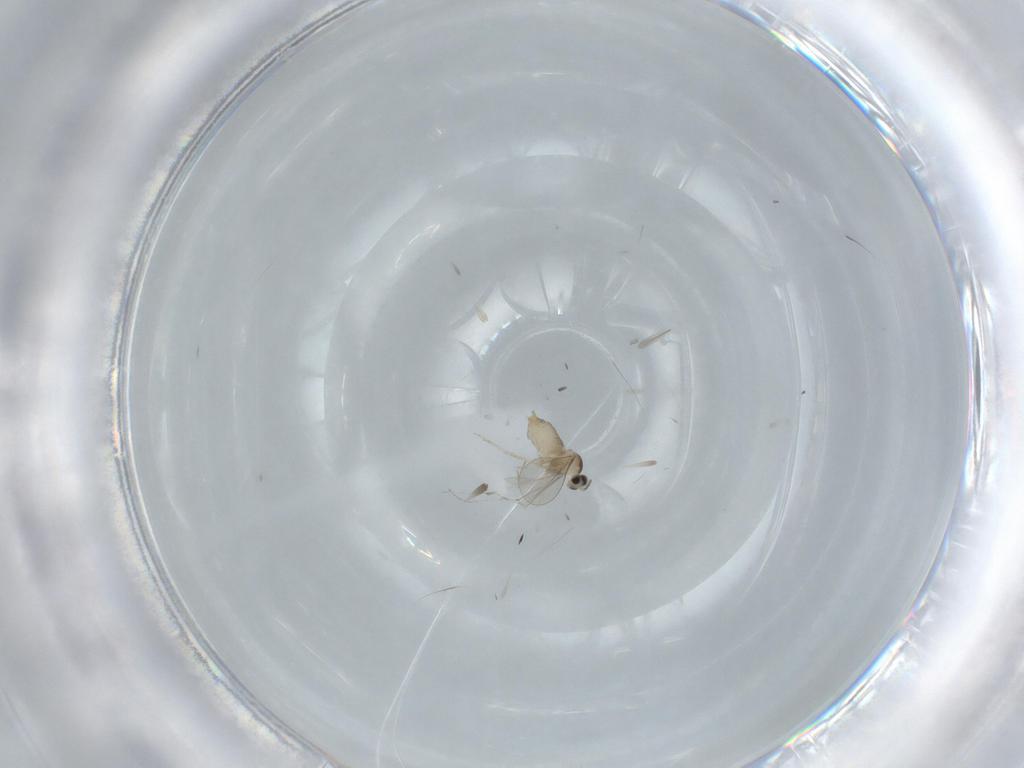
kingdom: Animalia
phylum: Arthropoda
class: Insecta
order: Diptera
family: Cecidomyiidae
